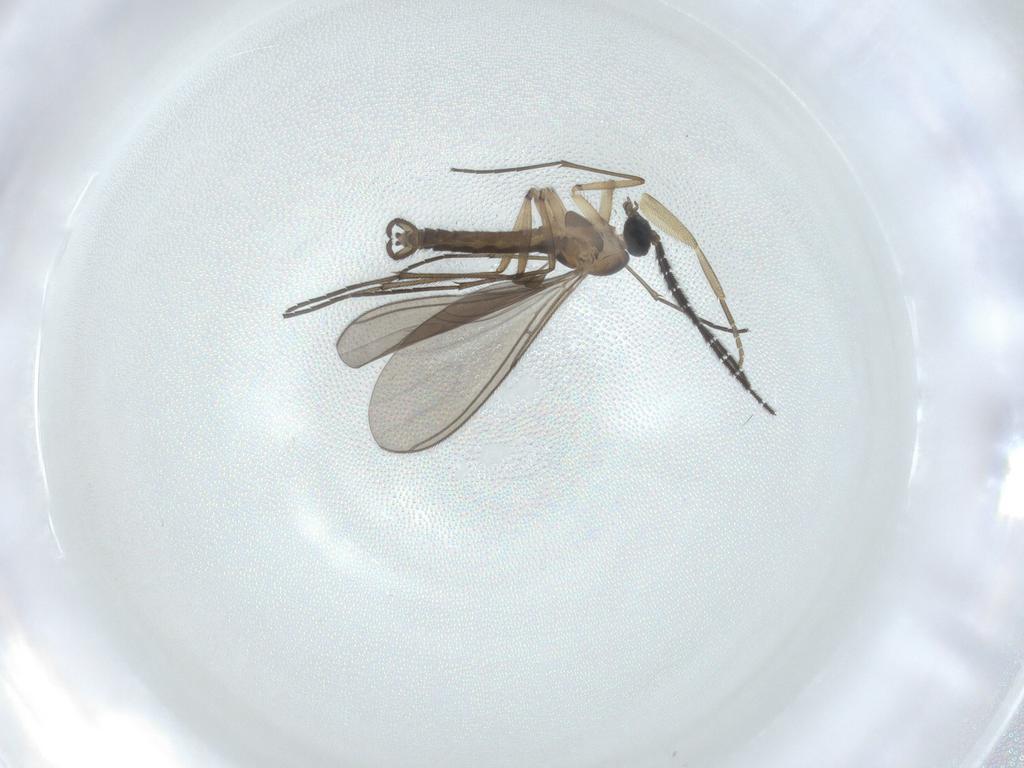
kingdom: Animalia
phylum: Arthropoda
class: Insecta
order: Diptera
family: Sciaridae
